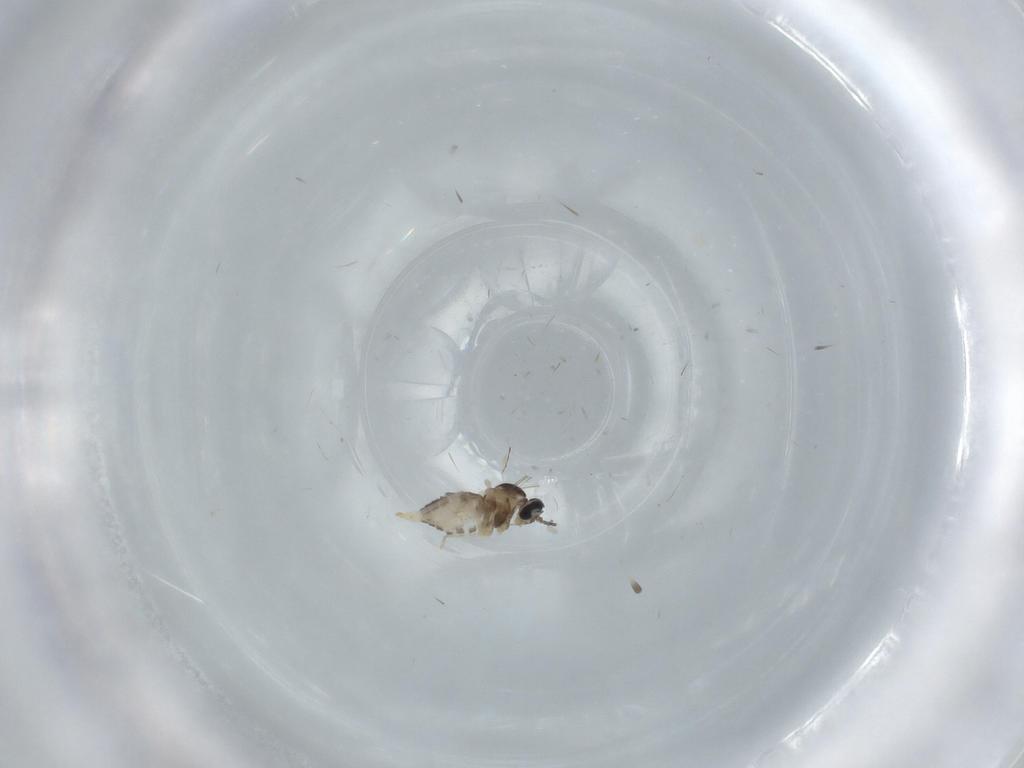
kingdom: Animalia
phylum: Arthropoda
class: Insecta
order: Diptera
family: Cecidomyiidae
